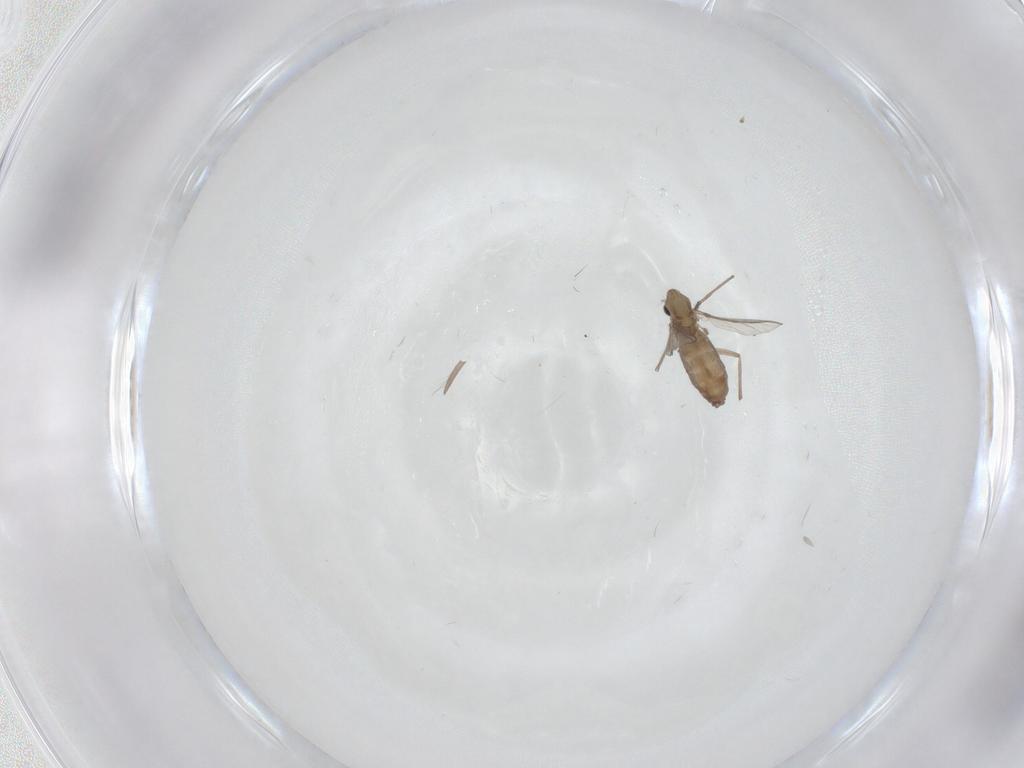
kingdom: Animalia
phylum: Arthropoda
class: Insecta
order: Diptera
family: Chironomidae
